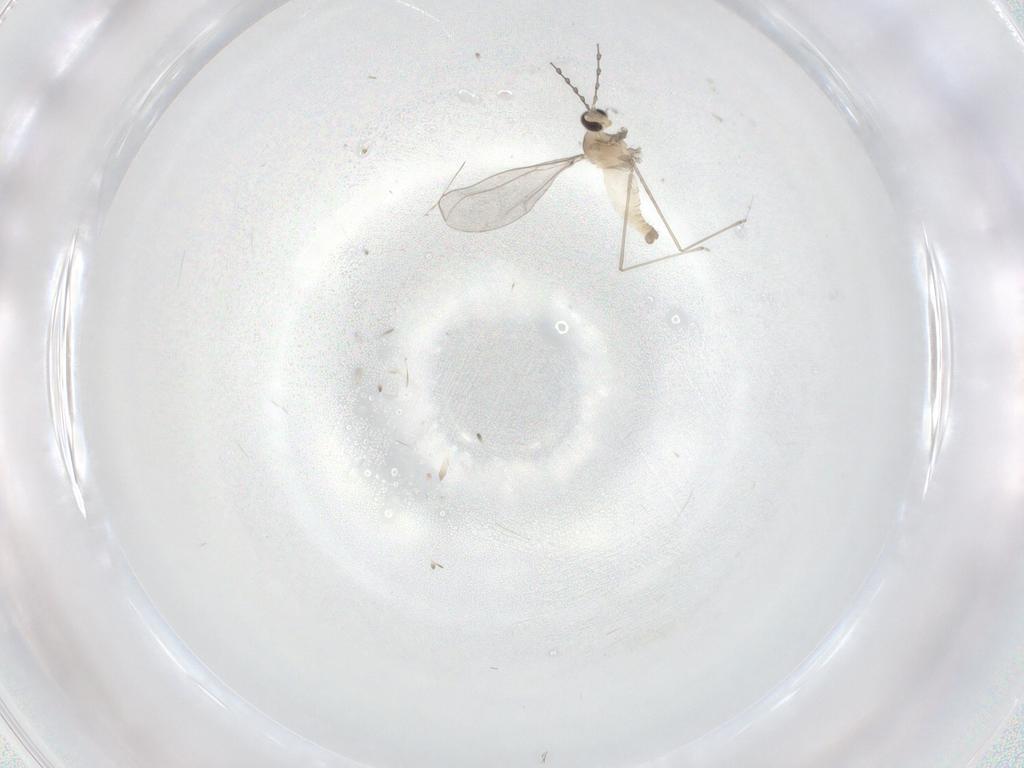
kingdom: Animalia
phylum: Arthropoda
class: Insecta
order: Diptera
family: Cecidomyiidae
